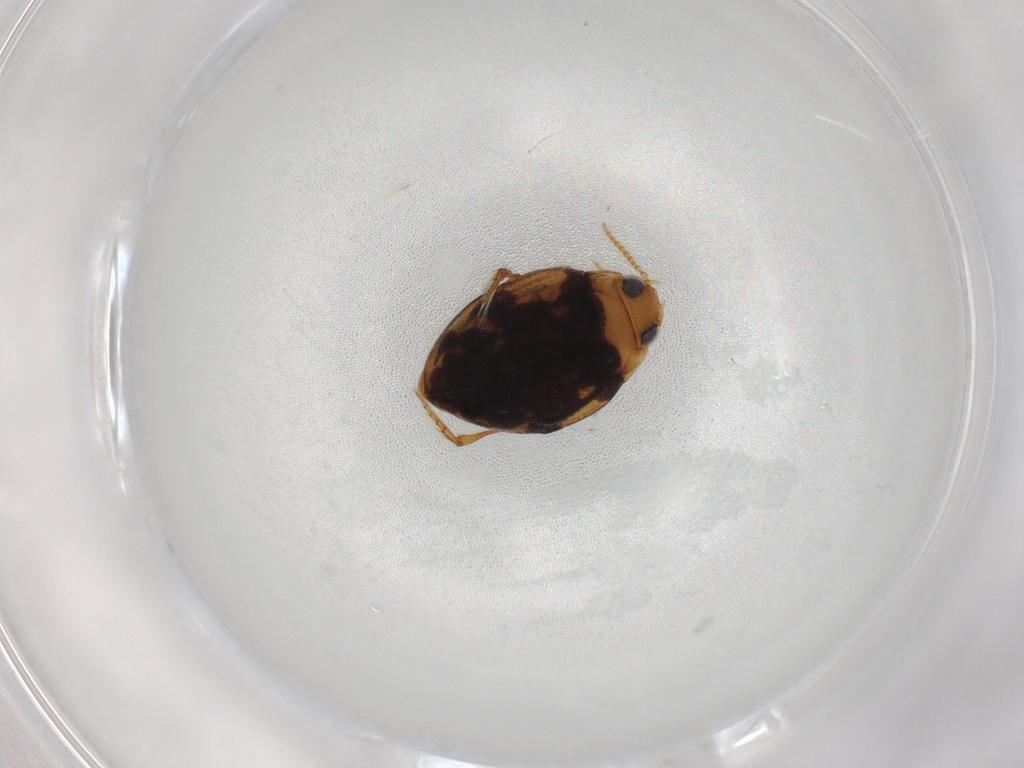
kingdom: Animalia
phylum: Arthropoda
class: Insecta
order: Coleoptera
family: Dytiscidae
